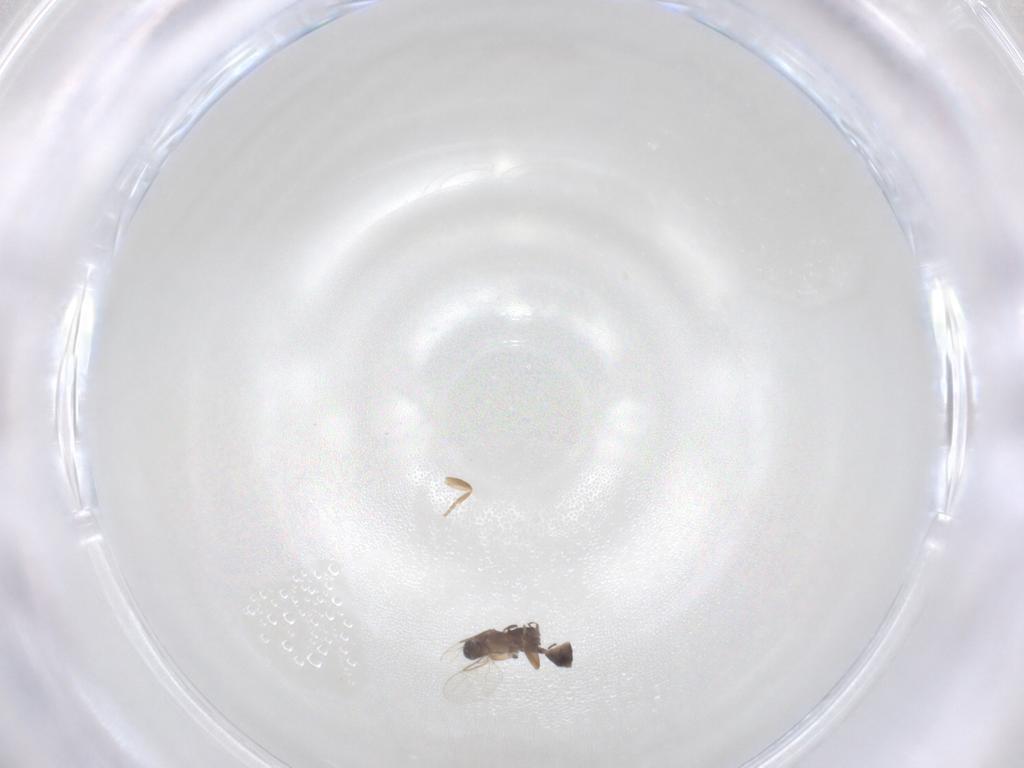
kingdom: Animalia
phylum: Arthropoda
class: Insecta
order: Diptera
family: Phoridae
